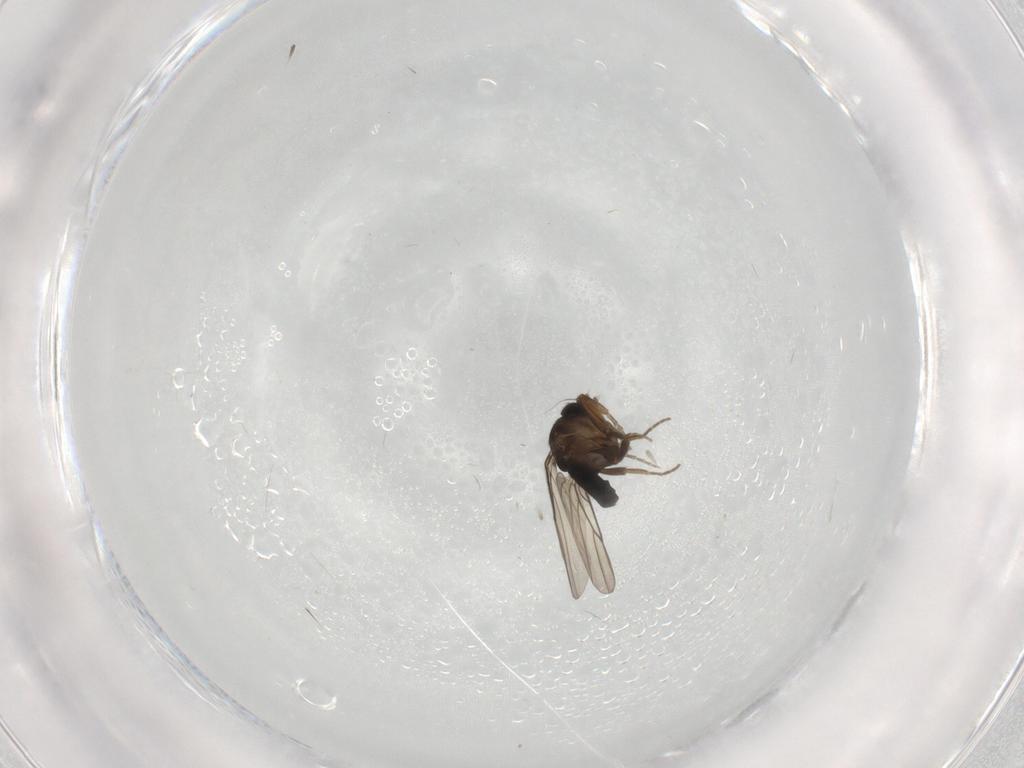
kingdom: Animalia
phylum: Arthropoda
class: Insecta
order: Diptera
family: Phoridae
